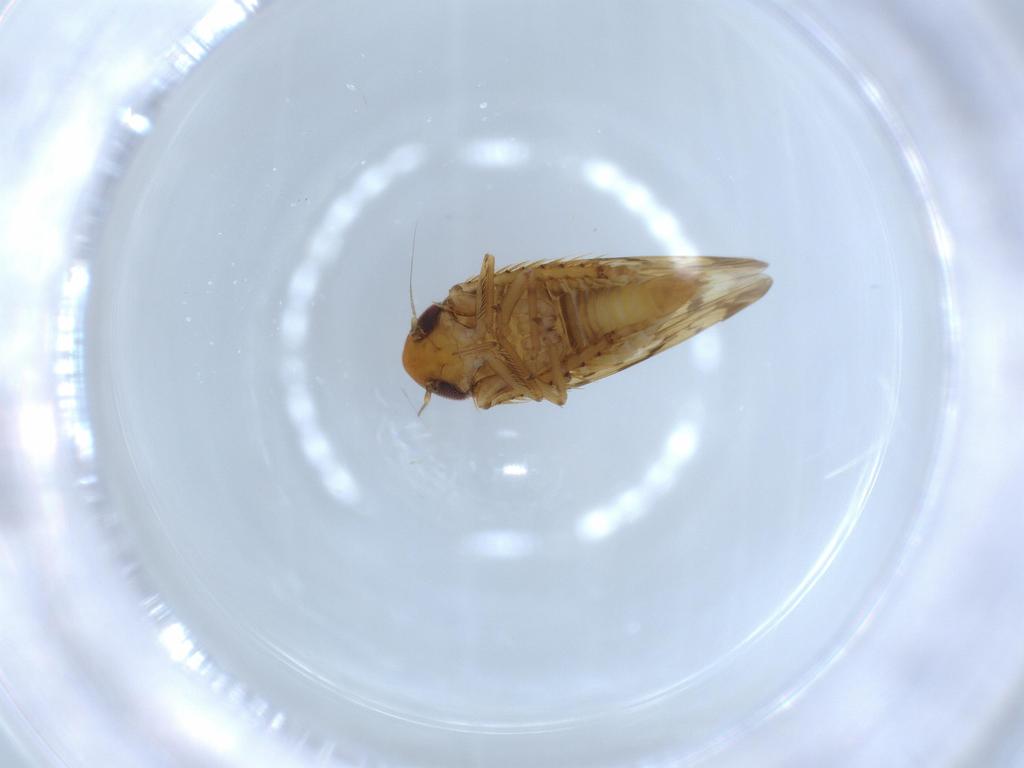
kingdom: Animalia
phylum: Arthropoda
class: Insecta
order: Hemiptera
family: Cicadellidae
